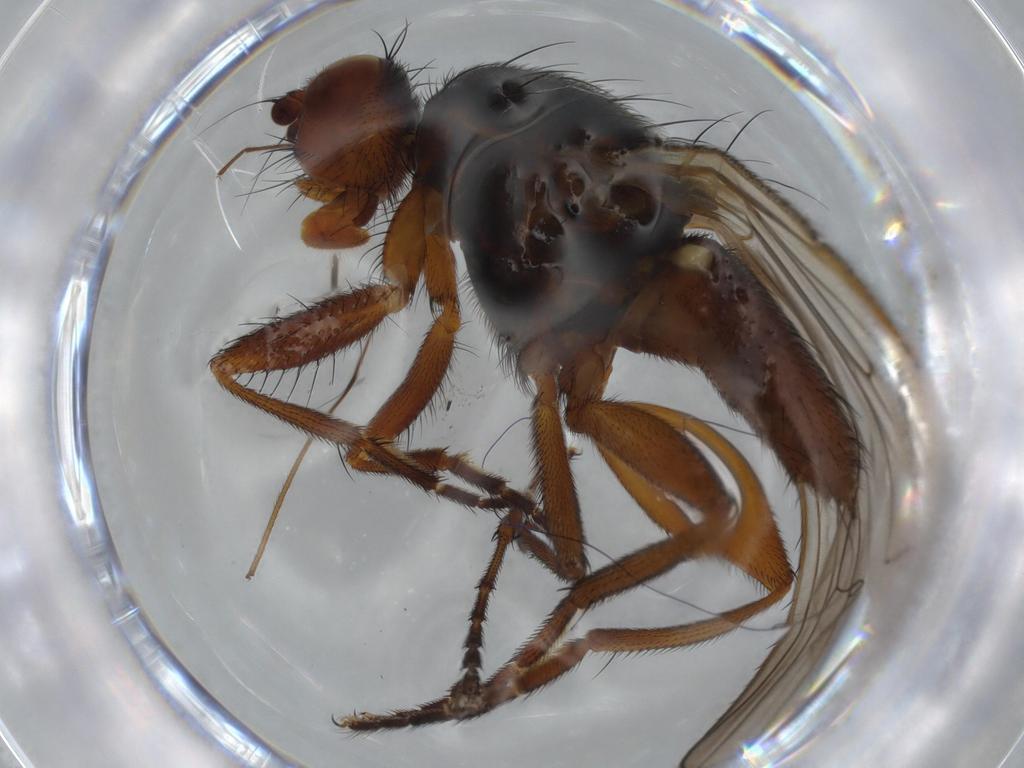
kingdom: Animalia
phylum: Arthropoda
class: Insecta
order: Diptera
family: Heleomyzidae
